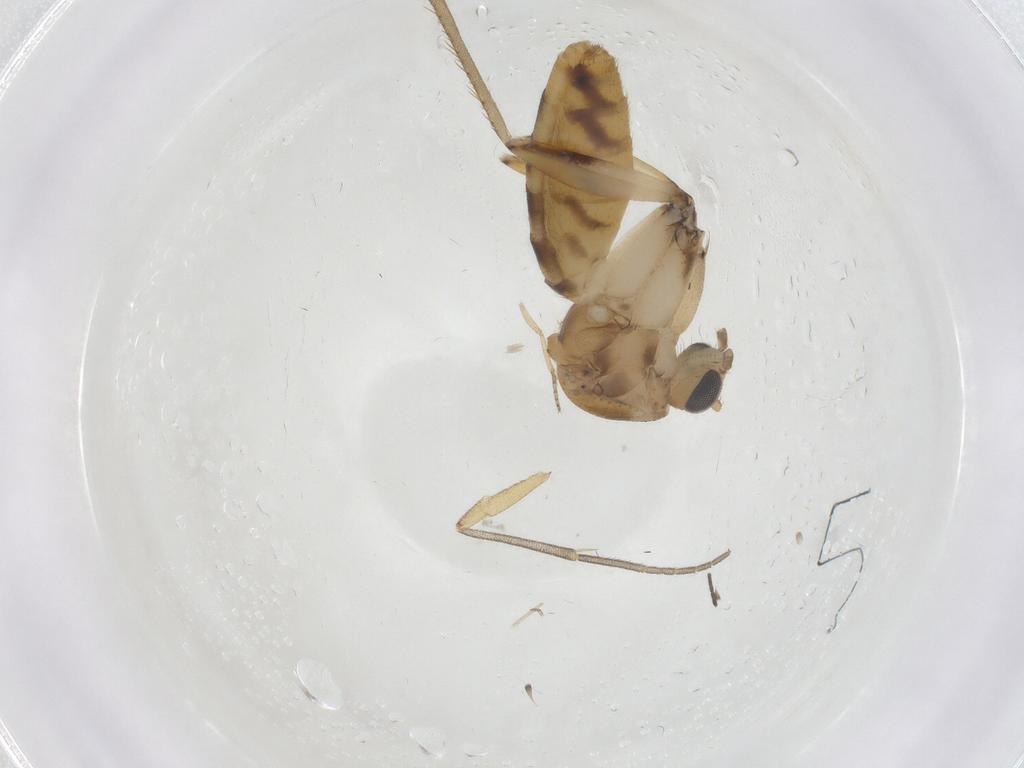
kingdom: Animalia
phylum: Arthropoda
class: Insecta
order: Diptera
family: Mycetophilidae
